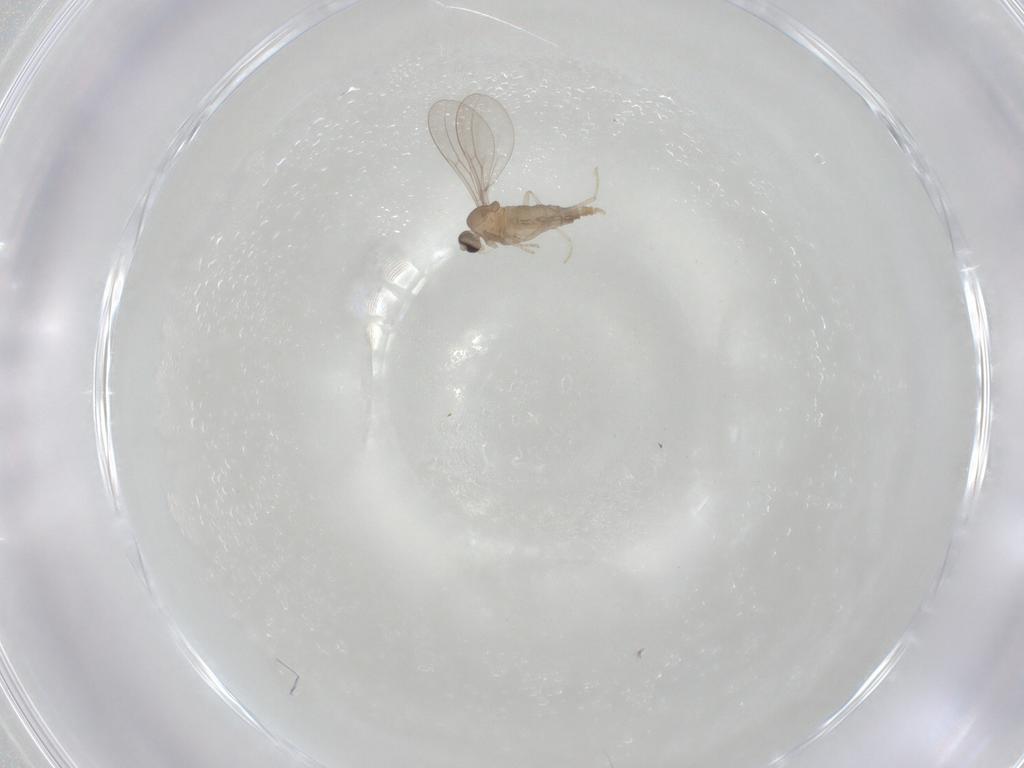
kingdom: Animalia
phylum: Arthropoda
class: Insecta
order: Diptera
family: Cecidomyiidae
